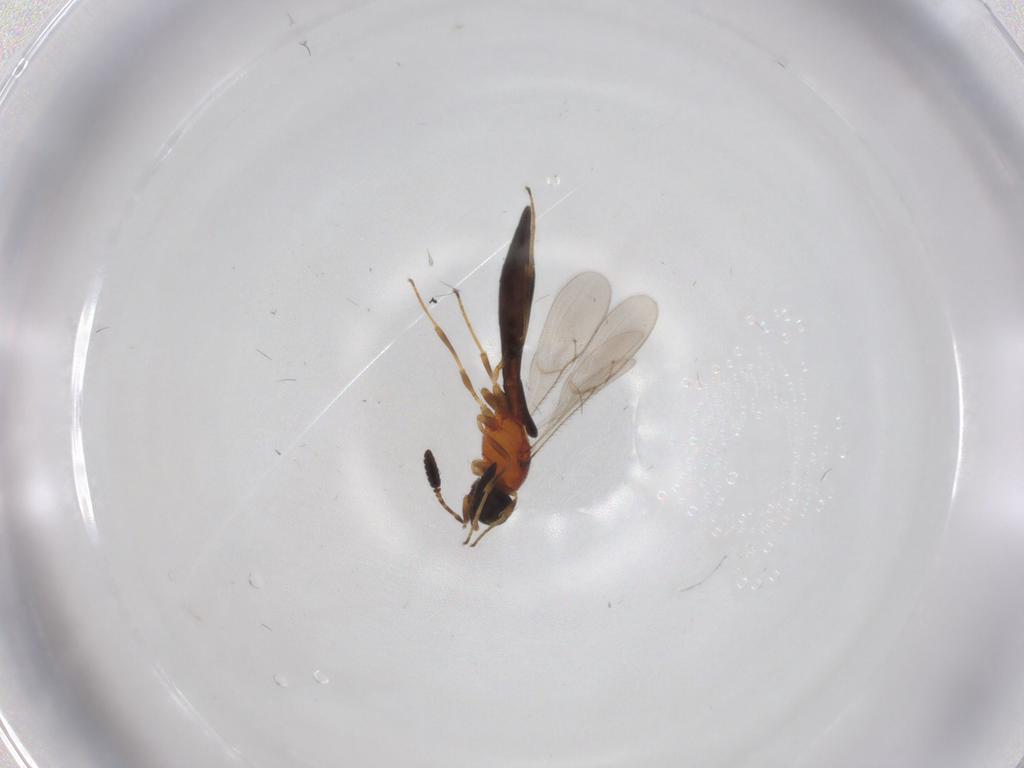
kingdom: Animalia
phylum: Arthropoda
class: Insecta
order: Hymenoptera
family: Scelionidae
